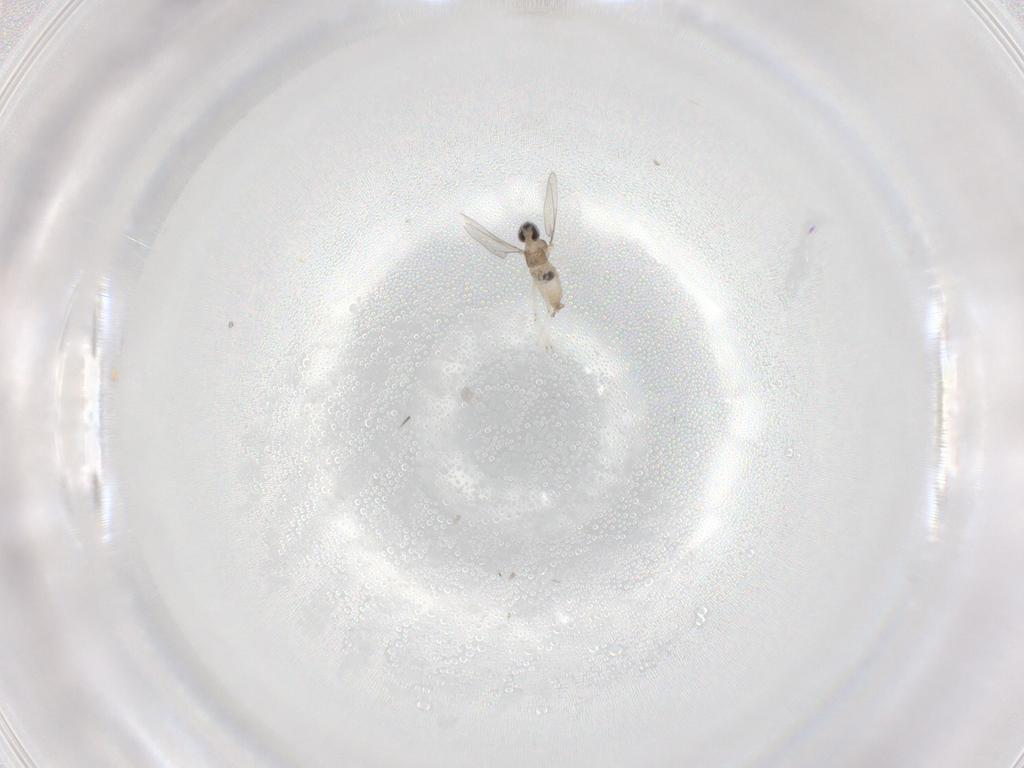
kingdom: Animalia
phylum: Arthropoda
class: Insecta
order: Diptera
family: Cecidomyiidae
